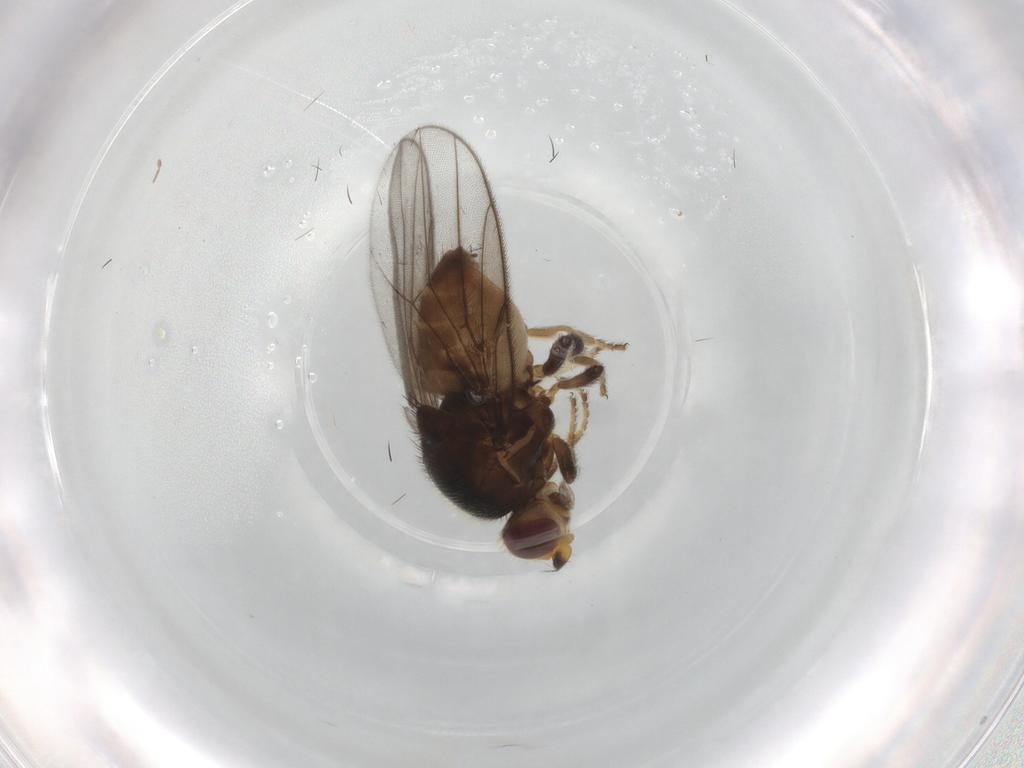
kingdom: Animalia
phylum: Arthropoda
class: Insecta
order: Diptera
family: Chloropidae
